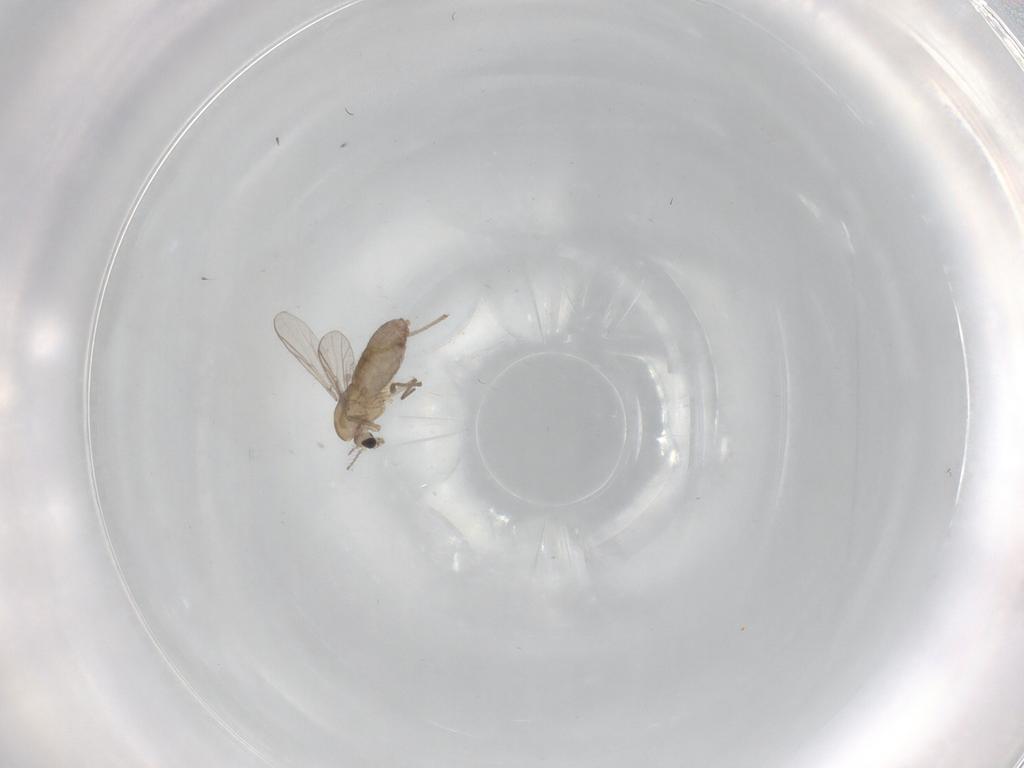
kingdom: Animalia
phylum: Arthropoda
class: Insecta
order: Diptera
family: Chironomidae
